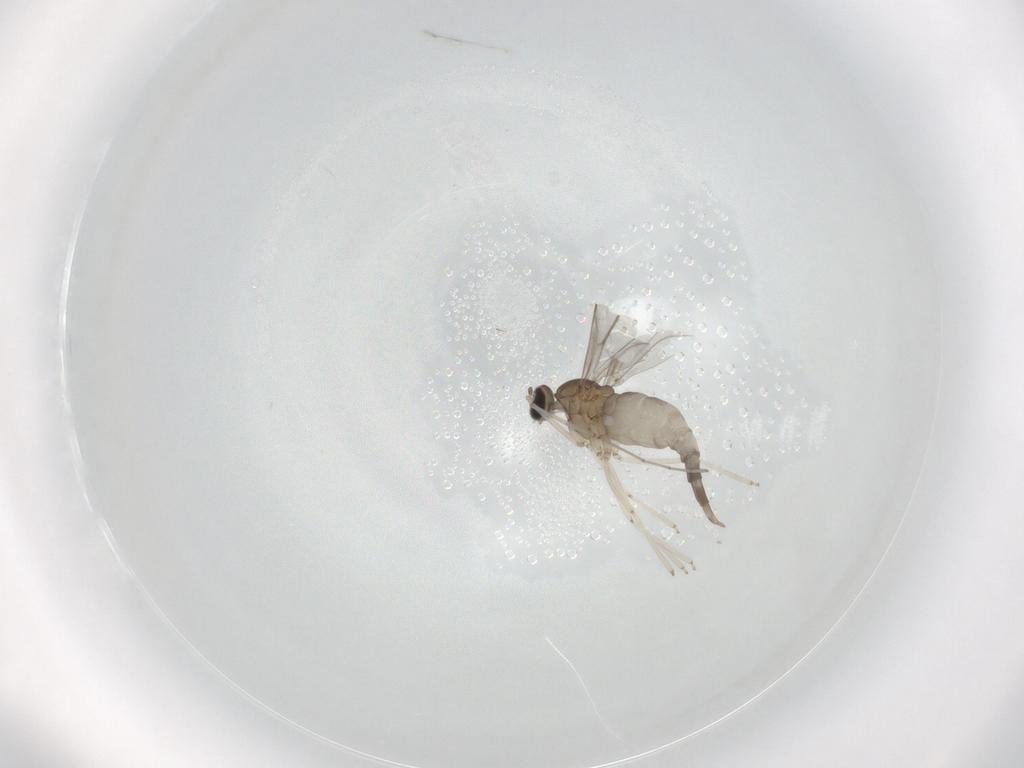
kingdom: Animalia
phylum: Arthropoda
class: Insecta
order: Diptera
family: Cecidomyiidae
